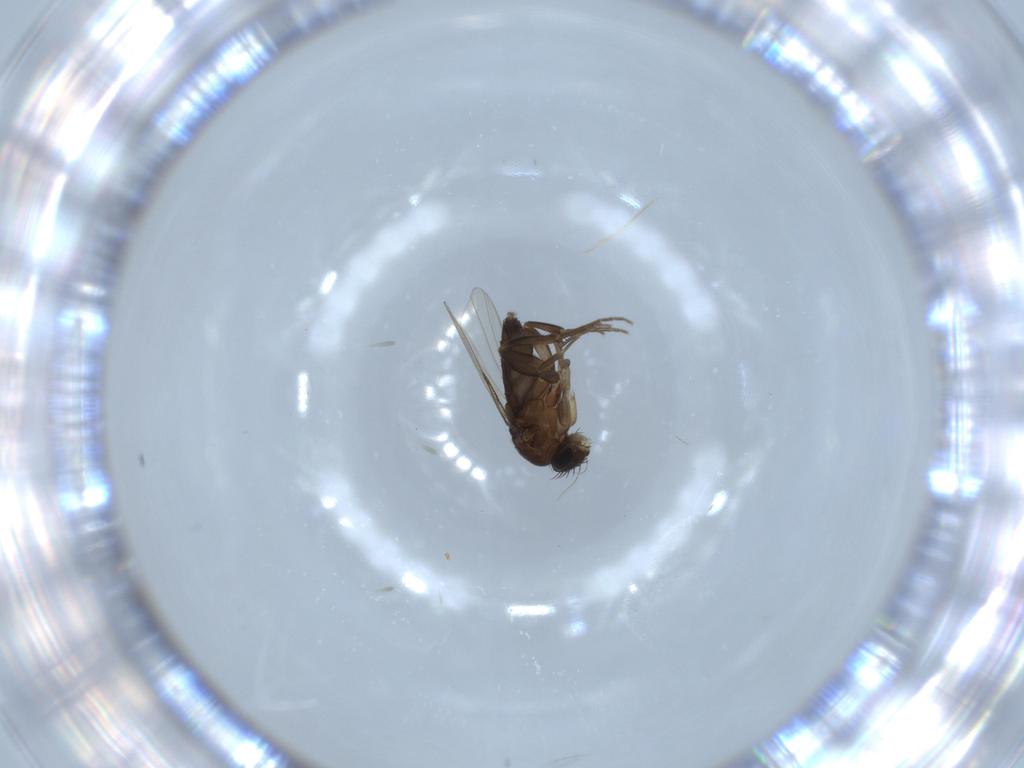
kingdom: Animalia
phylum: Arthropoda
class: Insecta
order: Diptera
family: Phoridae
